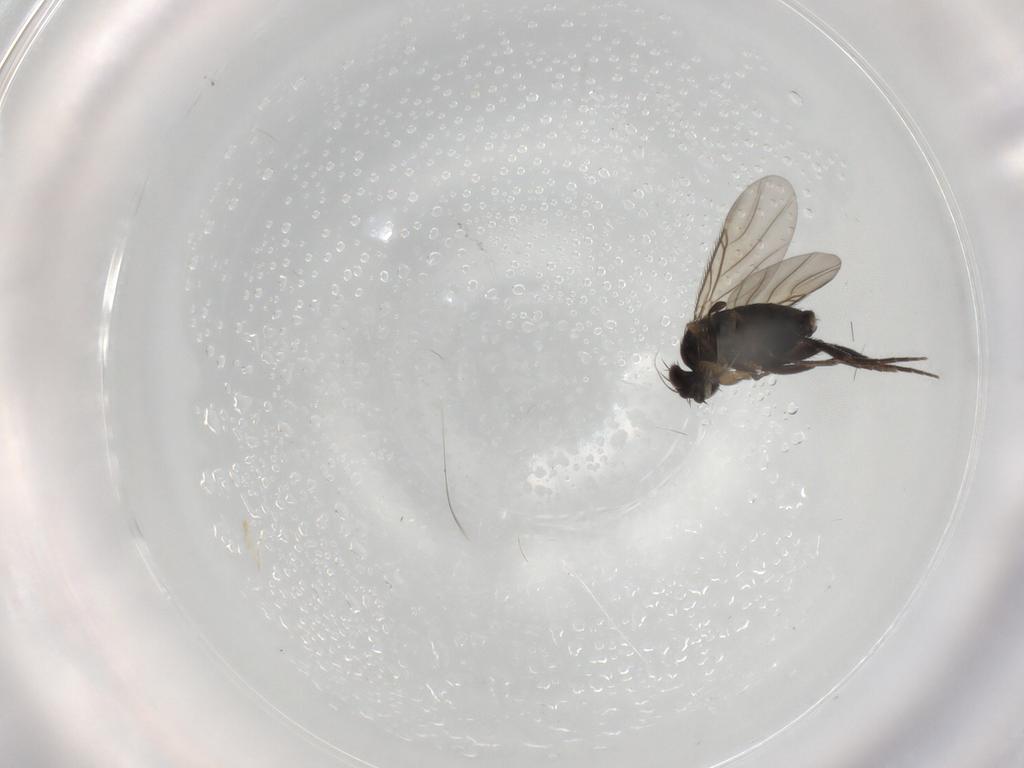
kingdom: Animalia
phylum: Arthropoda
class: Insecta
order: Diptera
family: Phoridae
